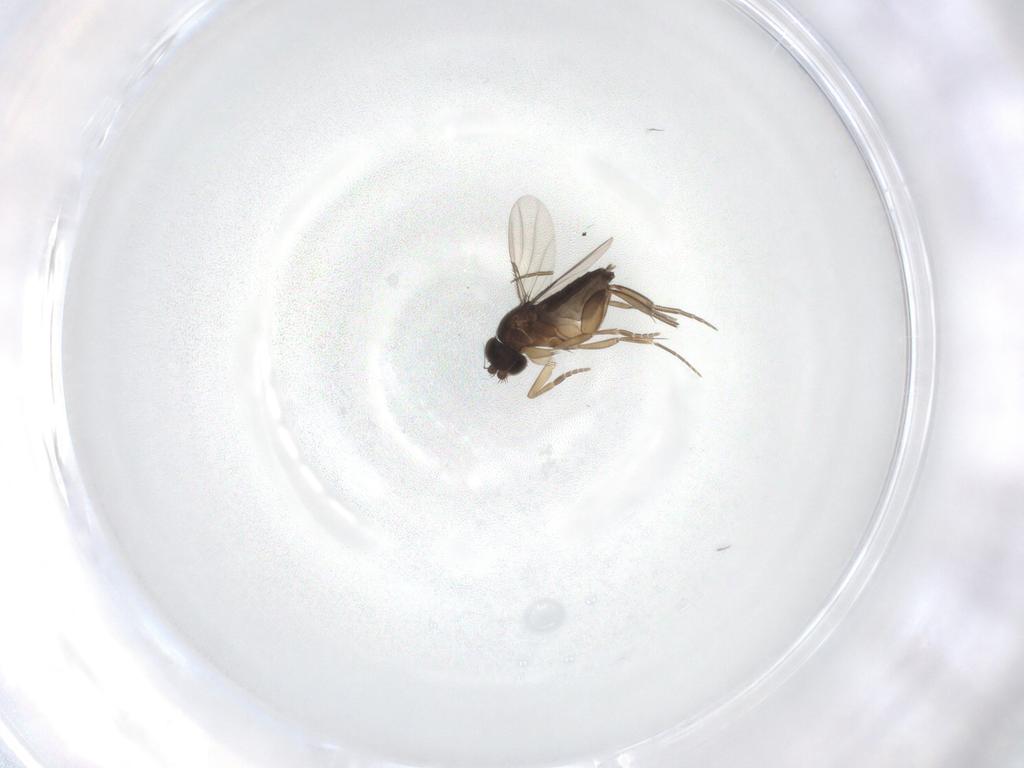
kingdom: Animalia
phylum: Arthropoda
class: Insecta
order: Diptera
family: Phoridae
